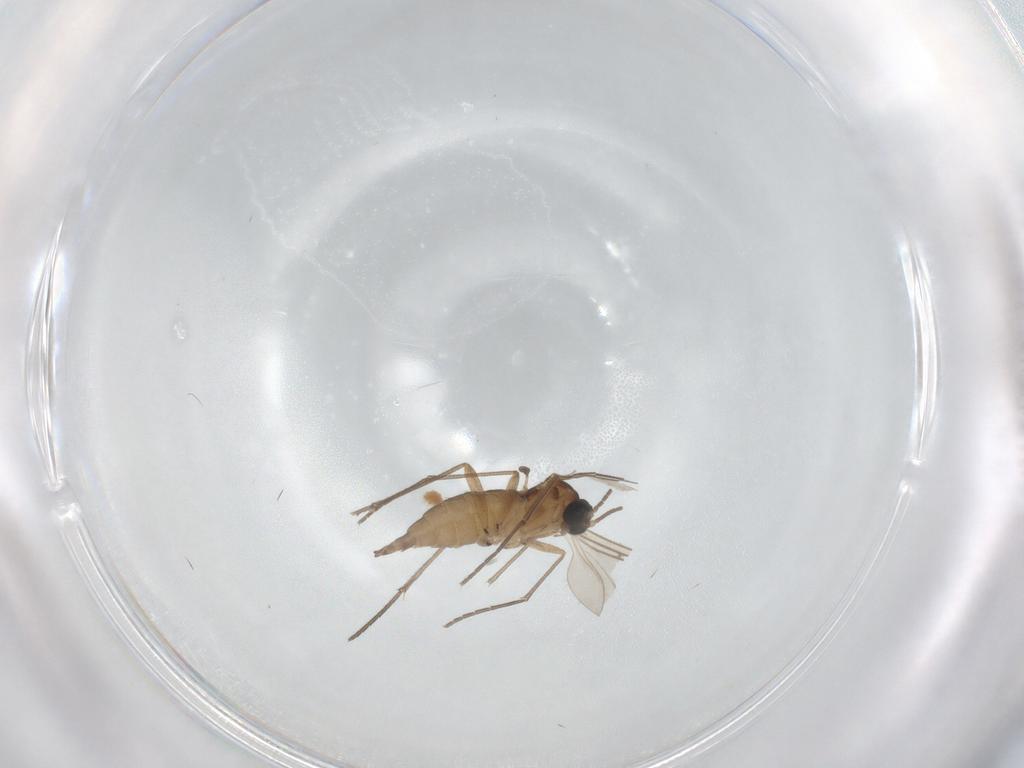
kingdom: Animalia
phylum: Arthropoda
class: Insecta
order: Diptera
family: Sciaridae
